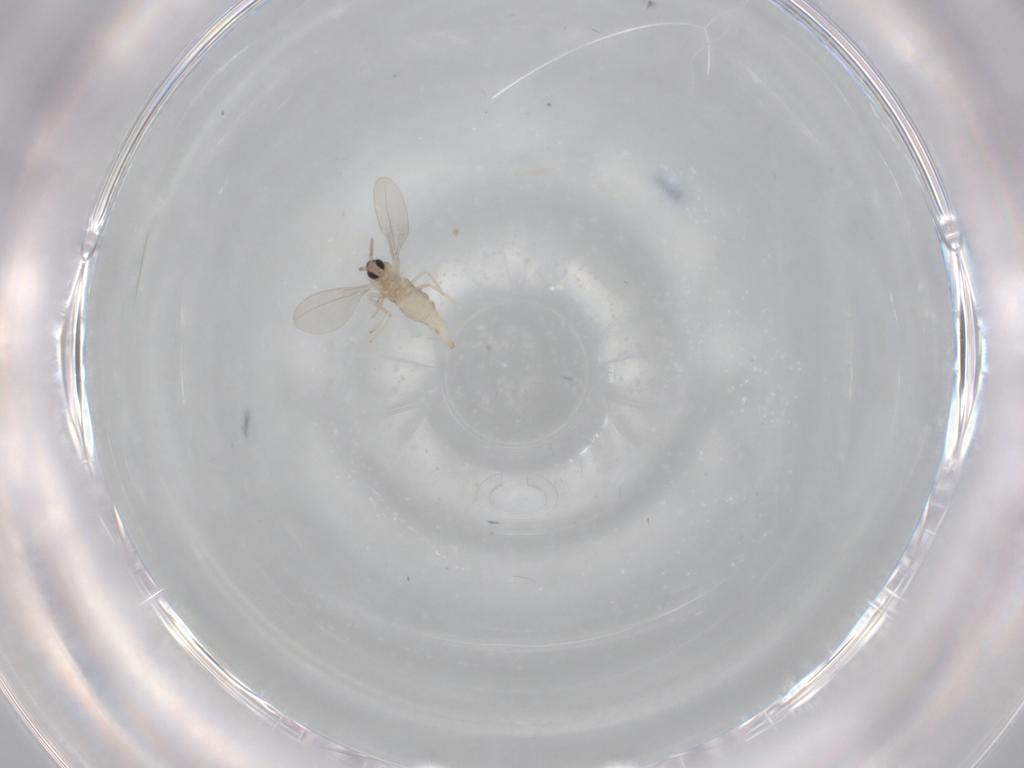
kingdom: Animalia
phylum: Arthropoda
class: Insecta
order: Diptera
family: Cecidomyiidae
